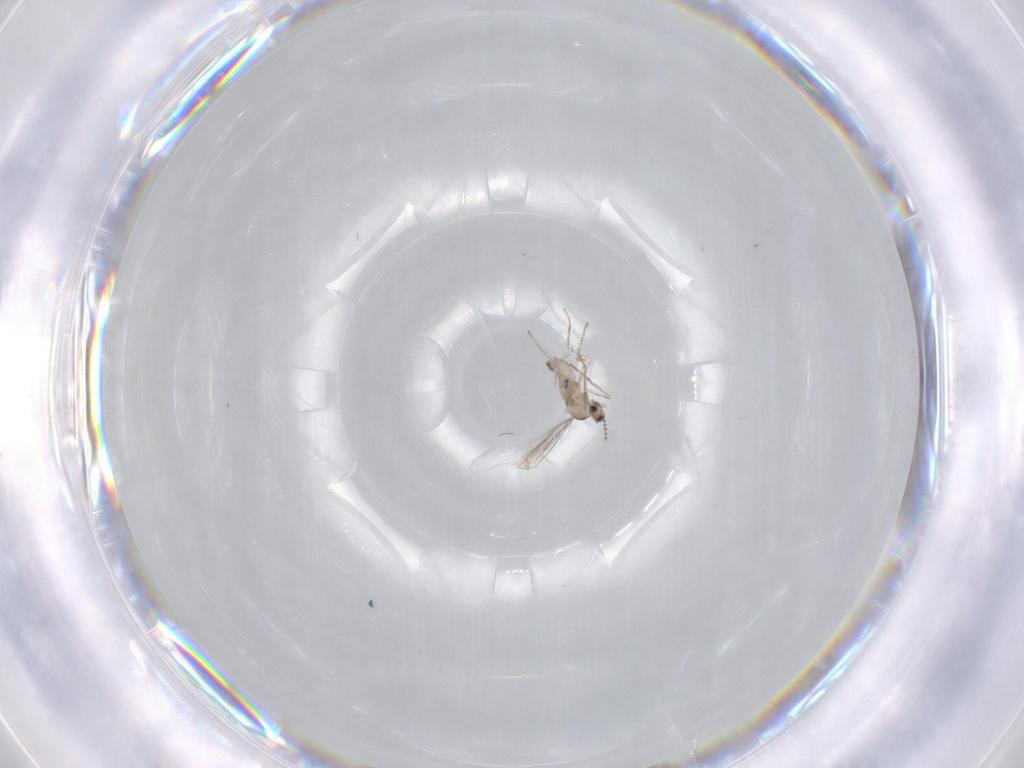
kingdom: Animalia
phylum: Arthropoda
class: Insecta
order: Diptera
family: Cecidomyiidae
